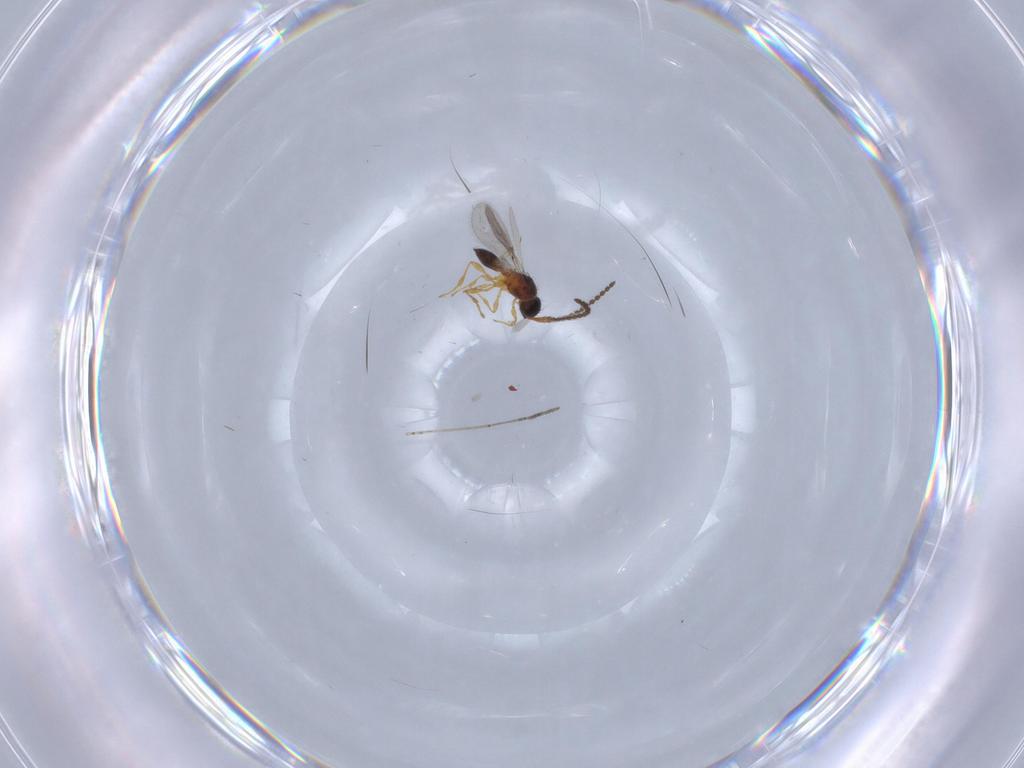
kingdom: Animalia
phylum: Arthropoda
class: Insecta
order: Hymenoptera
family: Diapriidae
